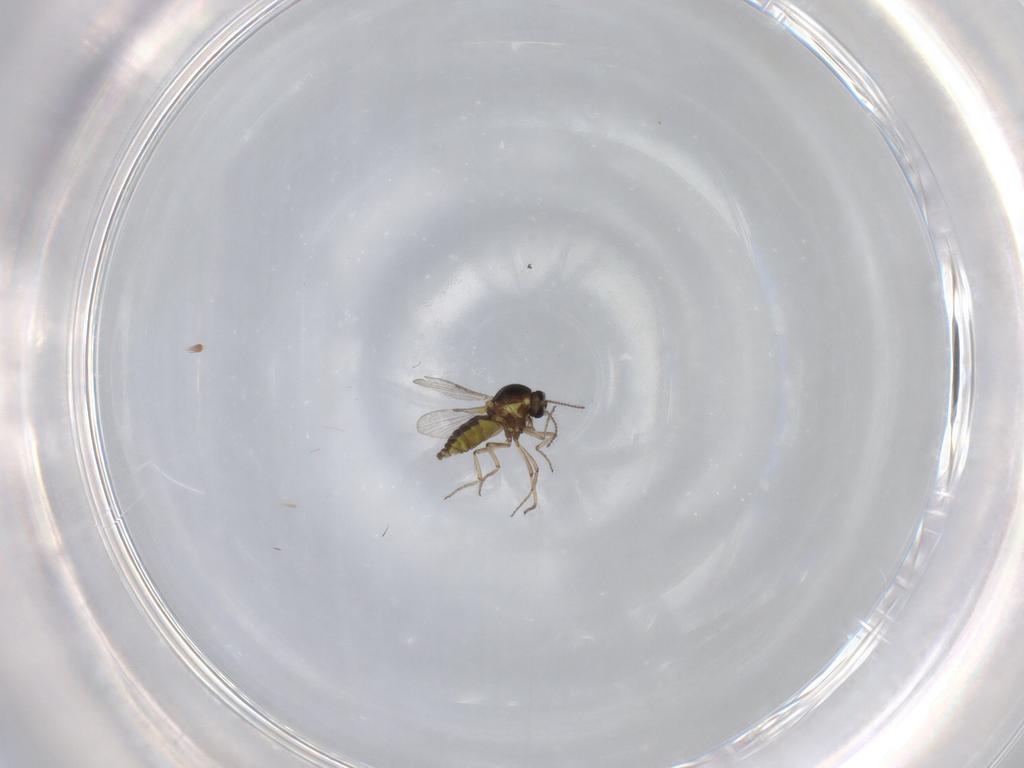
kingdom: Animalia
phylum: Arthropoda
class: Insecta
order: Diptera
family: Ceratopogonidae
